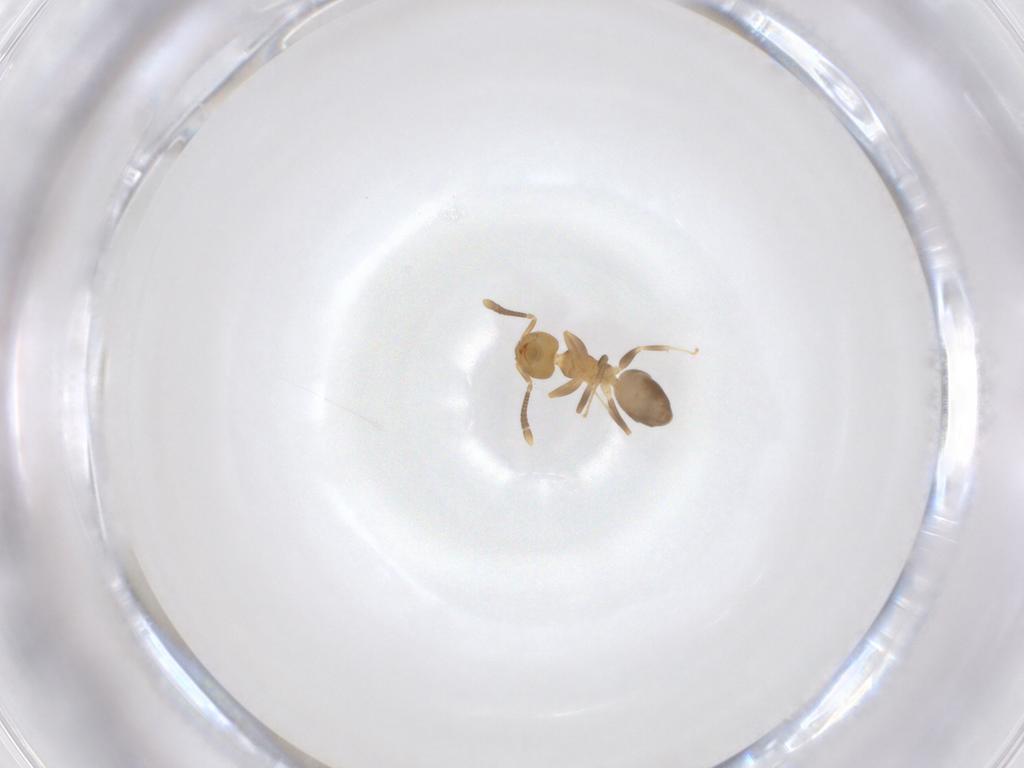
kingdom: Animalia
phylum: Arthropoda
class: Insecta
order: Hymenoptera
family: Formicidae
